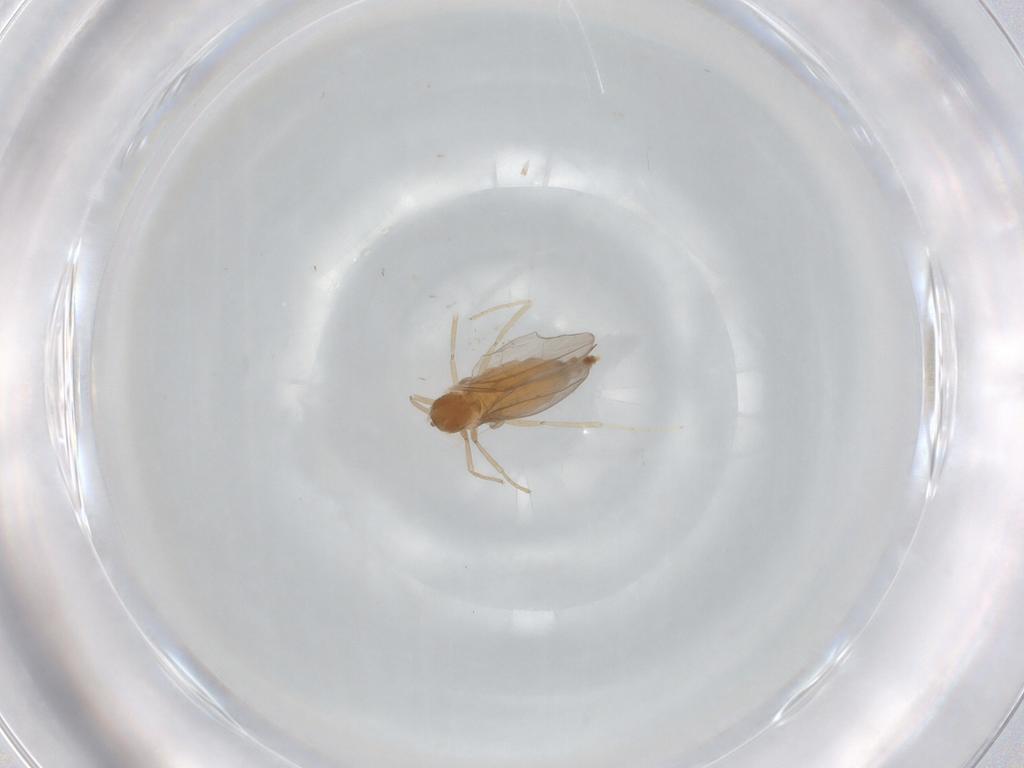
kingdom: Animalia
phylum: Arthropoda
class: Insecta
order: Diptera
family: Cecidomyiidae
